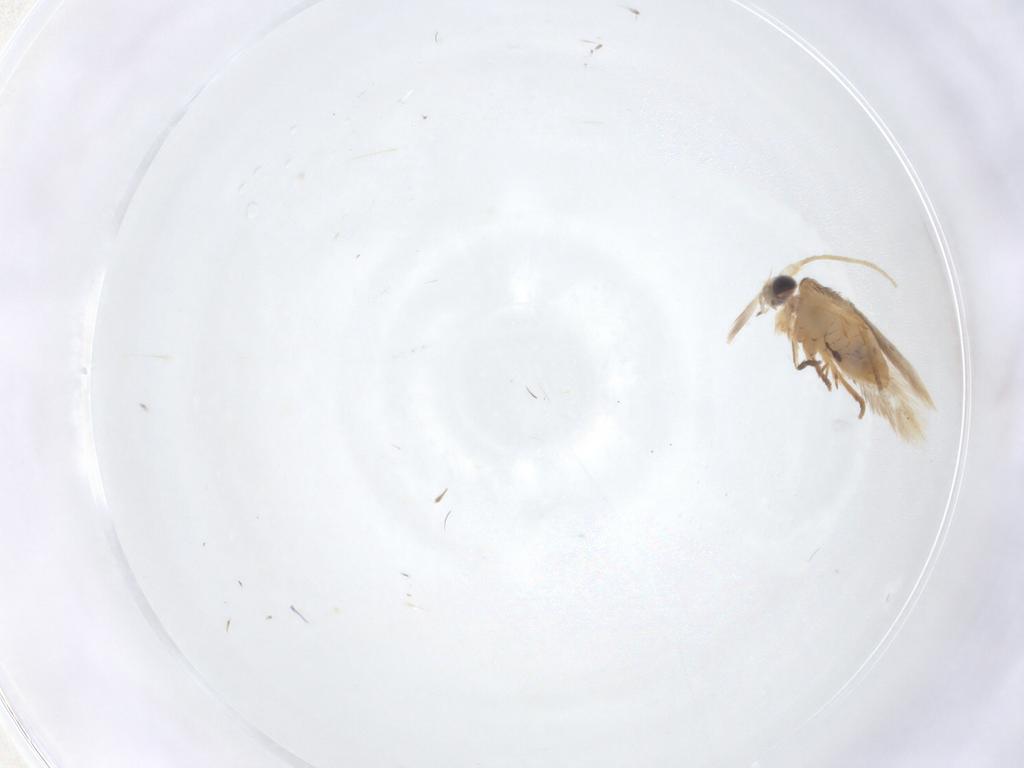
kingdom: Animalia
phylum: Arthropoda
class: Insecta
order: Lepidoptera
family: Nepticulidae
